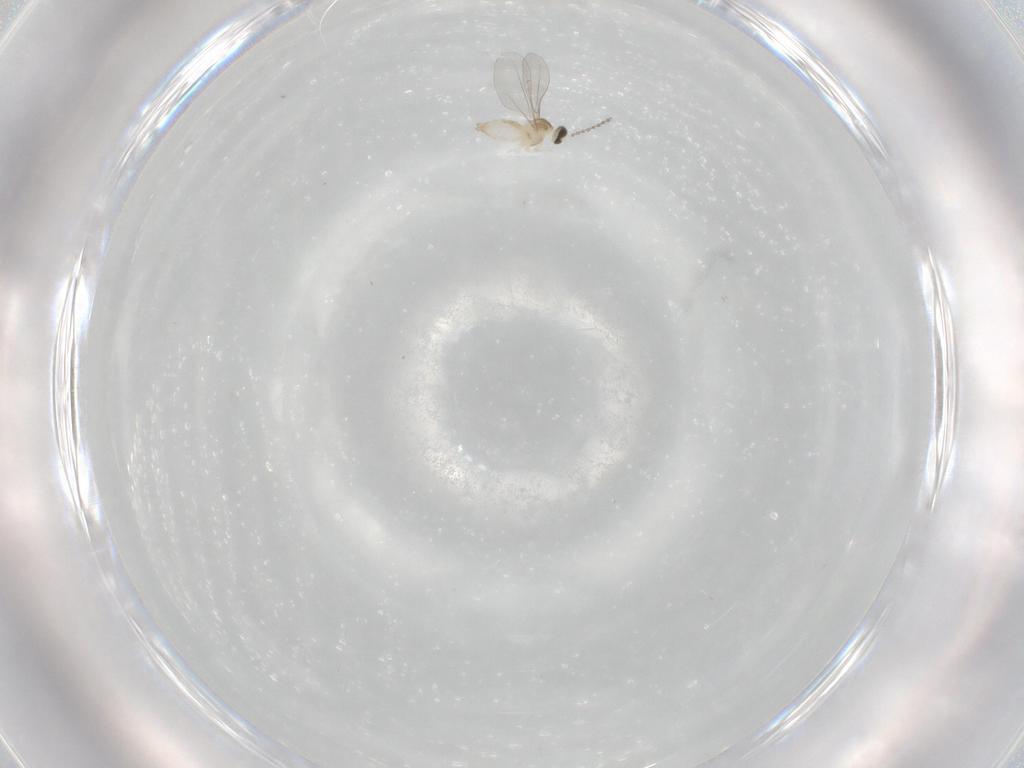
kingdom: Animalia
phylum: Arthropoda
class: Insecta
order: Diptera
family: Cecidomyiidae
